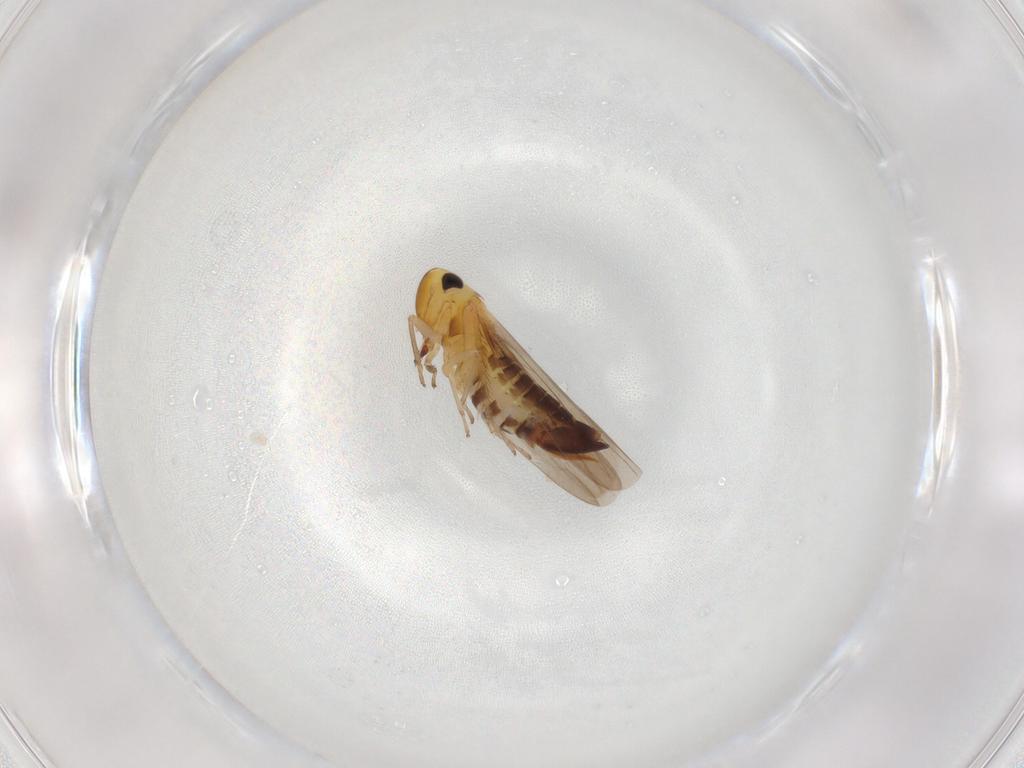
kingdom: Animalia
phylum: Arthropoda
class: Insecta
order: Hemiptera
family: Cicadellidae
